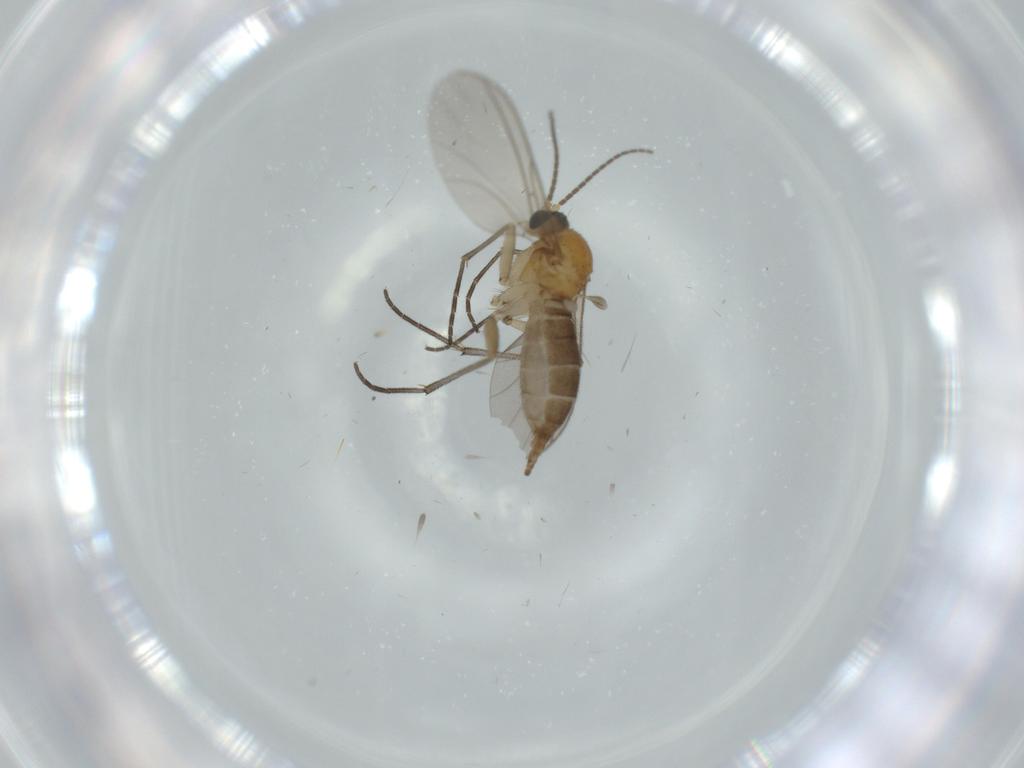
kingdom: Animalia
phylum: Arthropoda
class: Insecta
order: Diptera
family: Sciaridae
